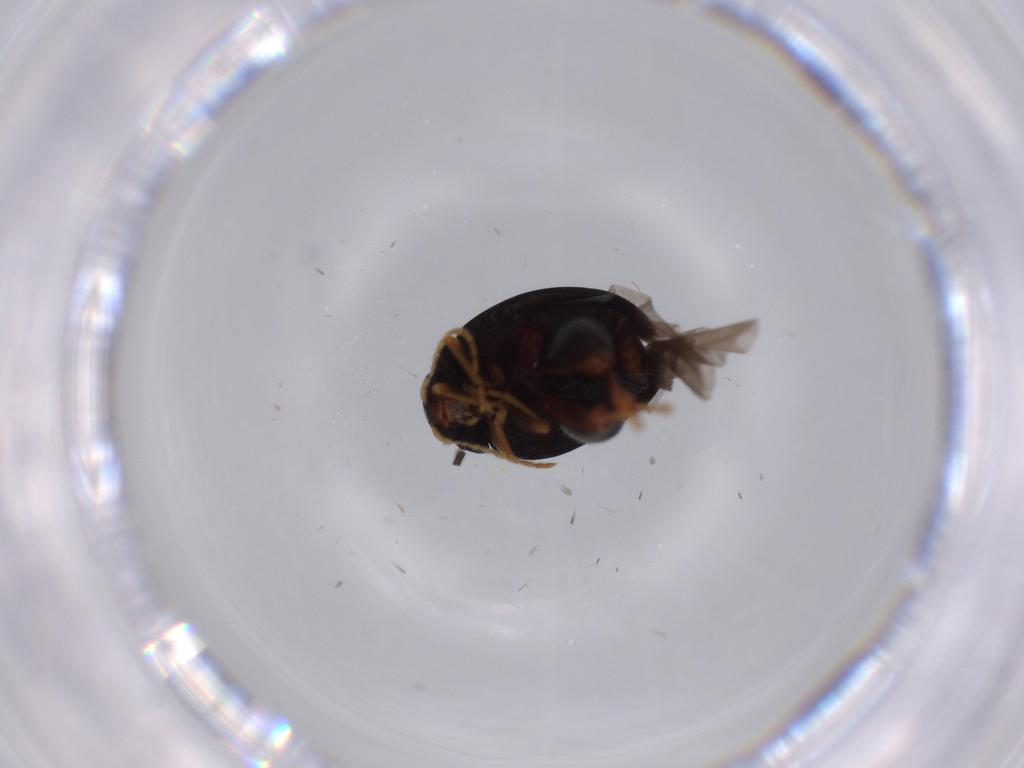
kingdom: Animalia
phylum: Arthropoda
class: Insecta
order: Coleoptera
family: Chrysomelidae
